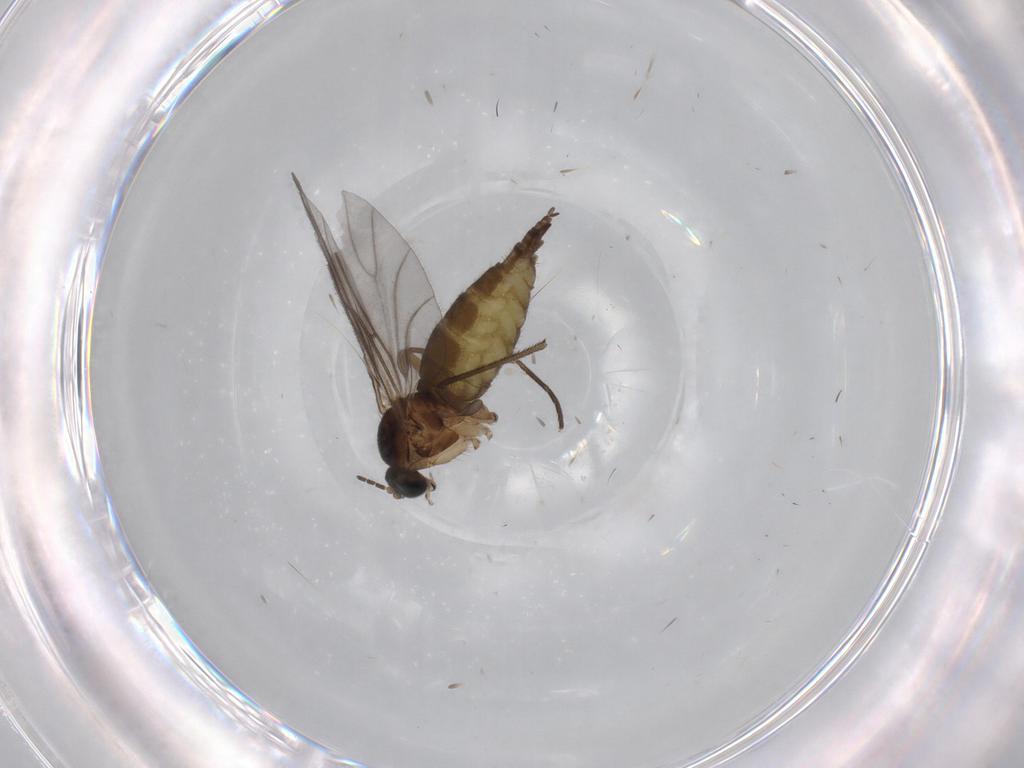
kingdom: Animalia
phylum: Arthropoda
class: Insecta
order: Diptera
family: Sciaridae
